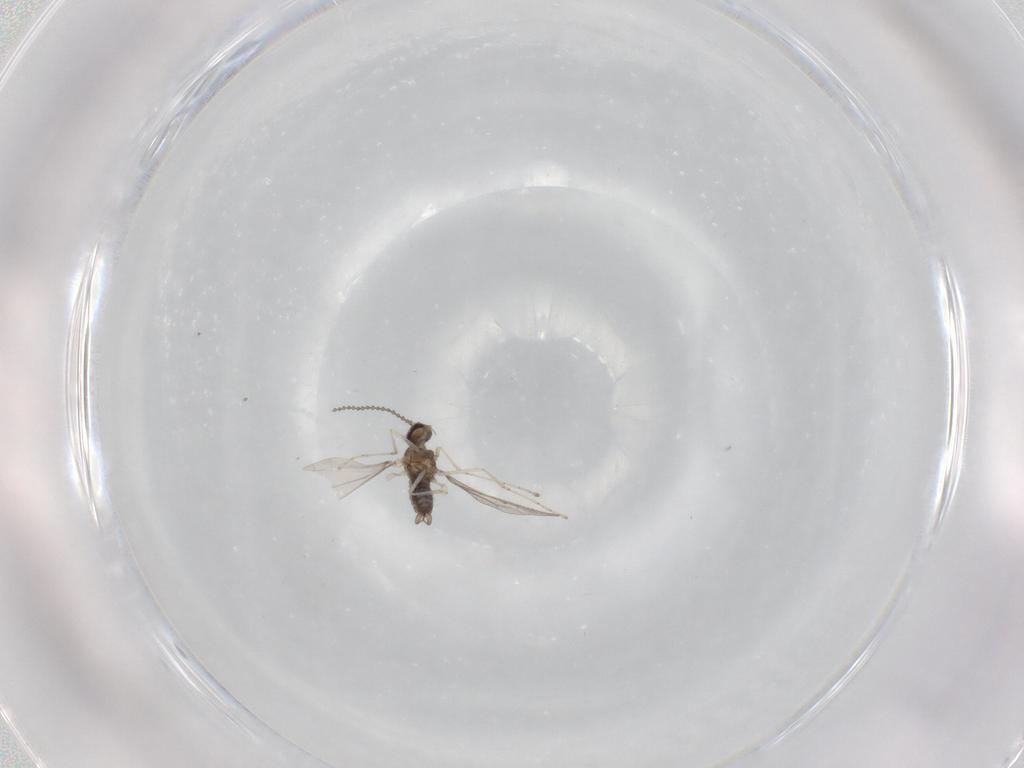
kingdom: Animalia
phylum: Arthropoda
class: Insecta
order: Diptera
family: Cecidomyiidae
